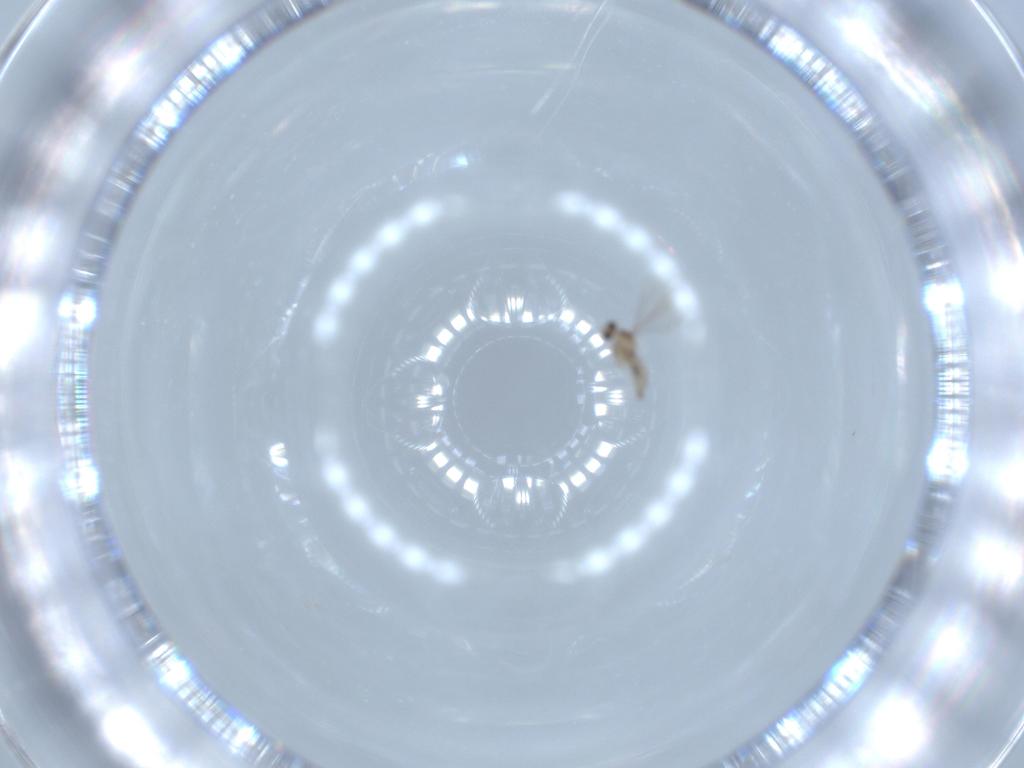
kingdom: Animalia
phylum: Arthropoda
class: Insecta
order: Diptera
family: Cecidomyiidae
